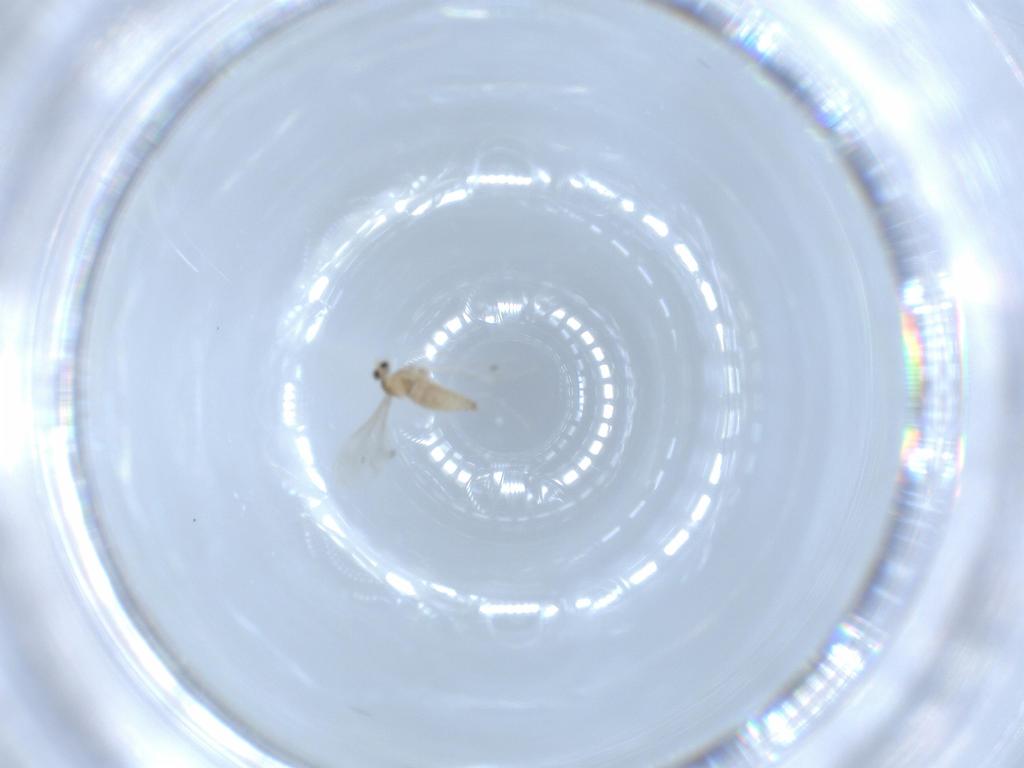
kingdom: Animalia
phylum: Arthropoda
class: Insecta
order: Diptera
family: Cecidomyiidae
